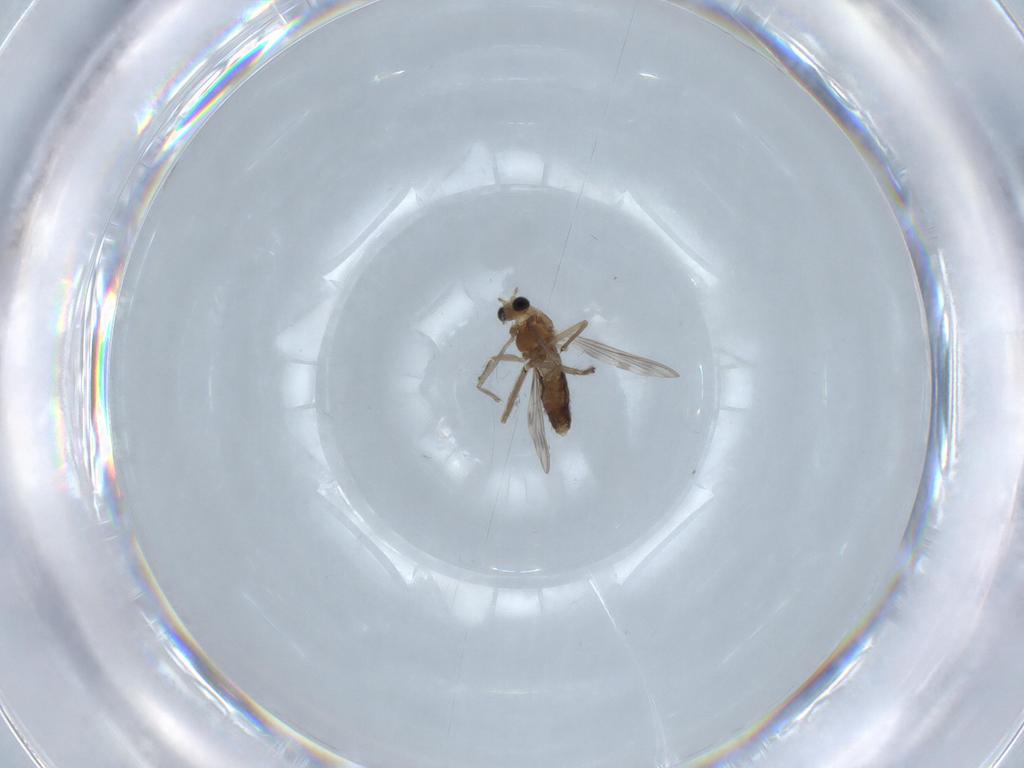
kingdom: Animalia
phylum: Arthropoda
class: Insecta
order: Diptera
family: Chironomidae
